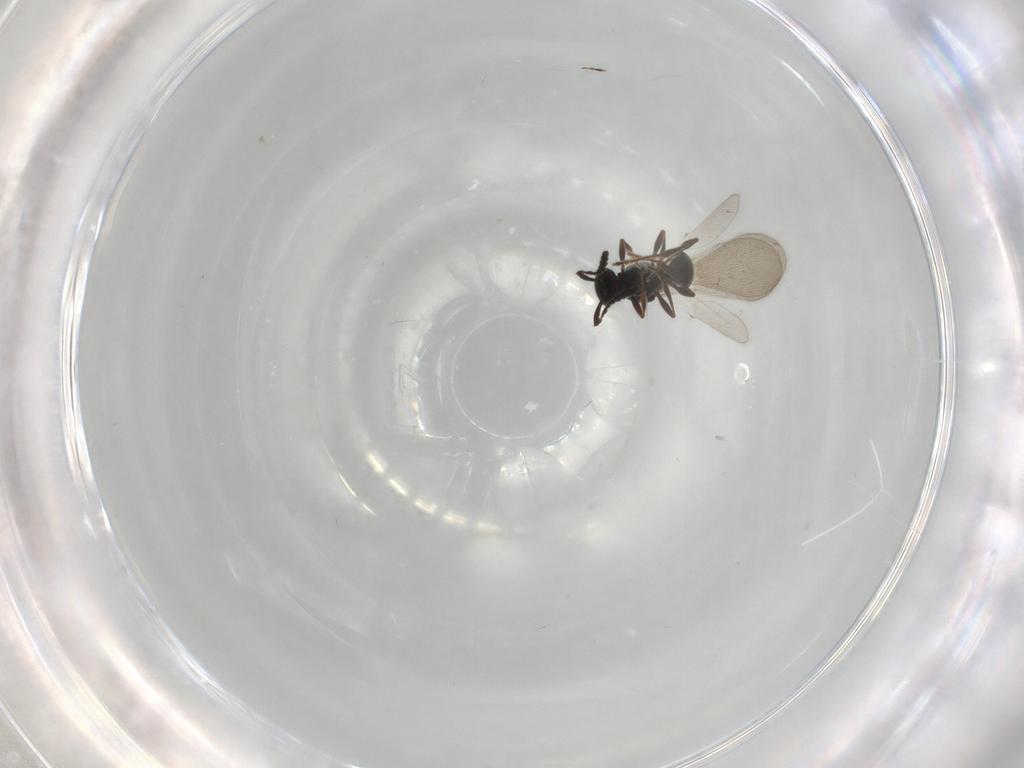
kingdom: Animalia
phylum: Arthropoda
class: Insecta
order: Hymenoptera
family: Platygastridae
